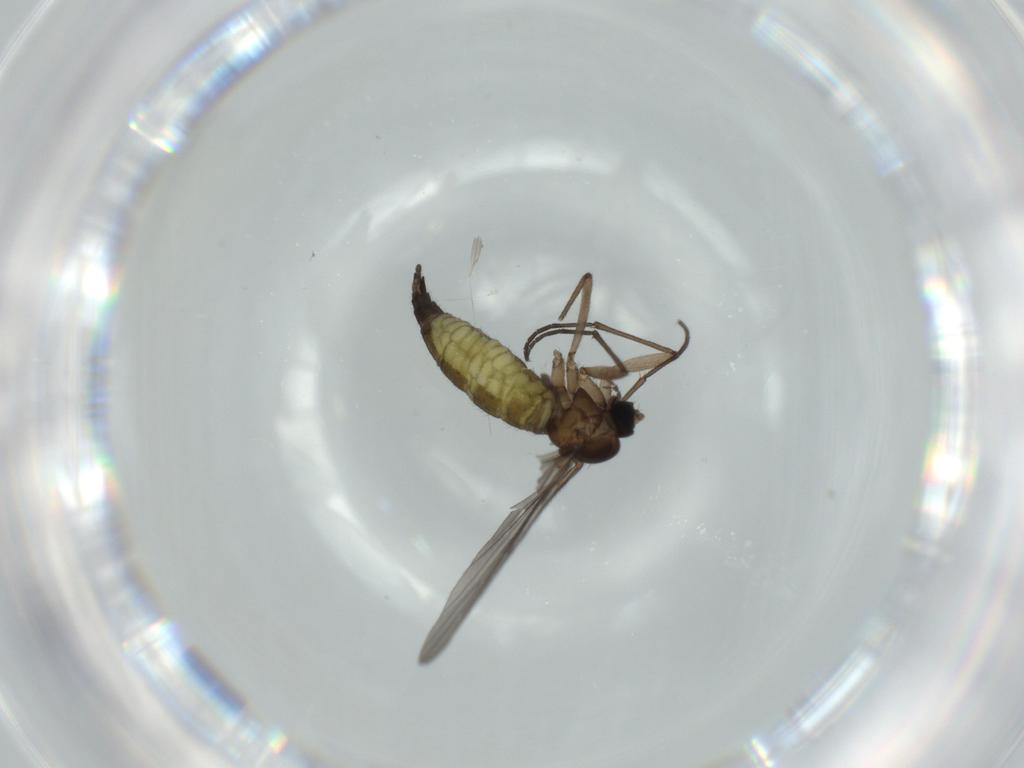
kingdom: Animalia
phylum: Arthropoda
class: Insecta
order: Diptera
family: Sciaridae
